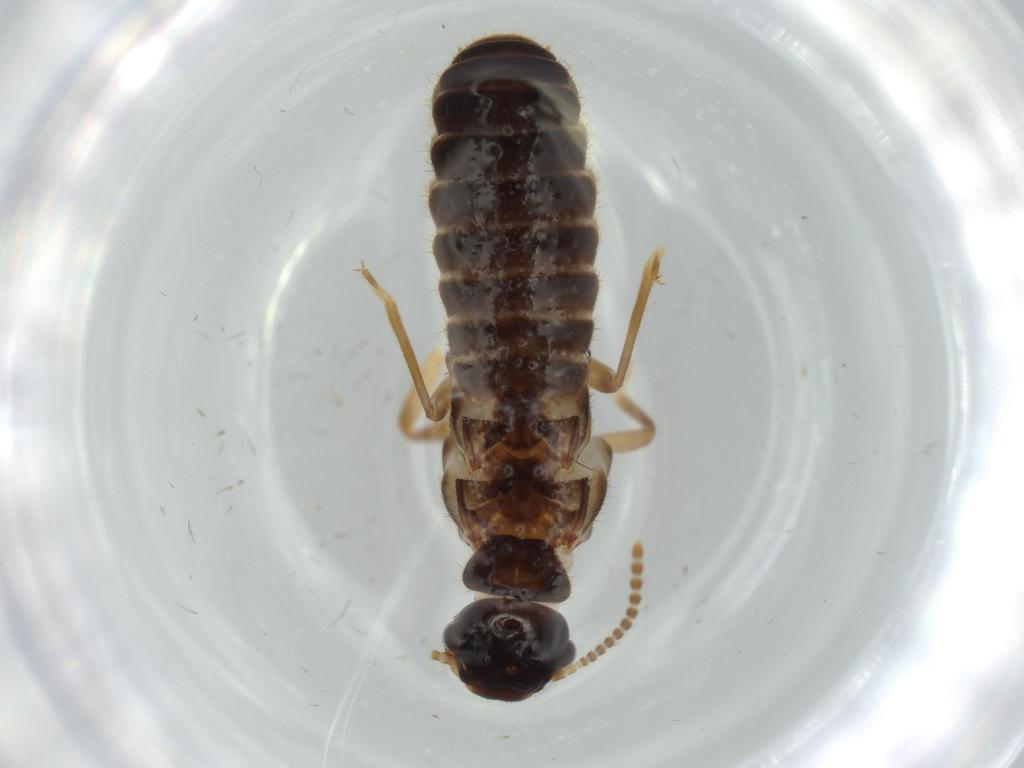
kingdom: Animalia
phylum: Arthropoda
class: Insecta
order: Blattodea
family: Termitidae
